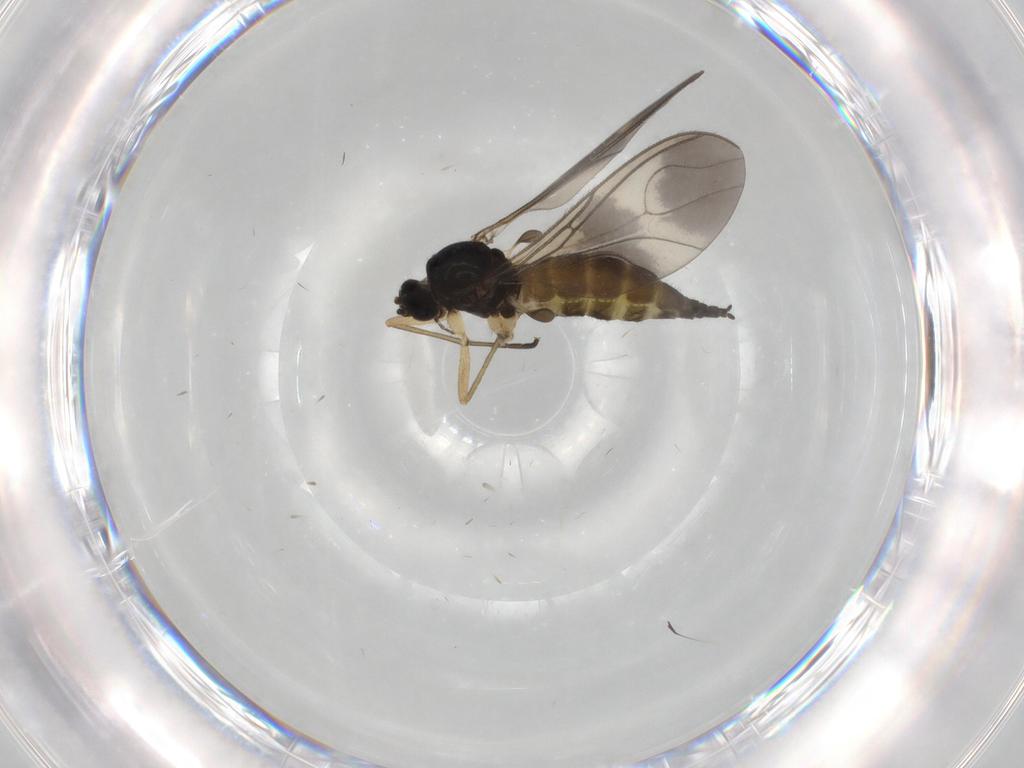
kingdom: Animalia
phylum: Arthropoda
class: Insecta
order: Diptera
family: Sciaridae
